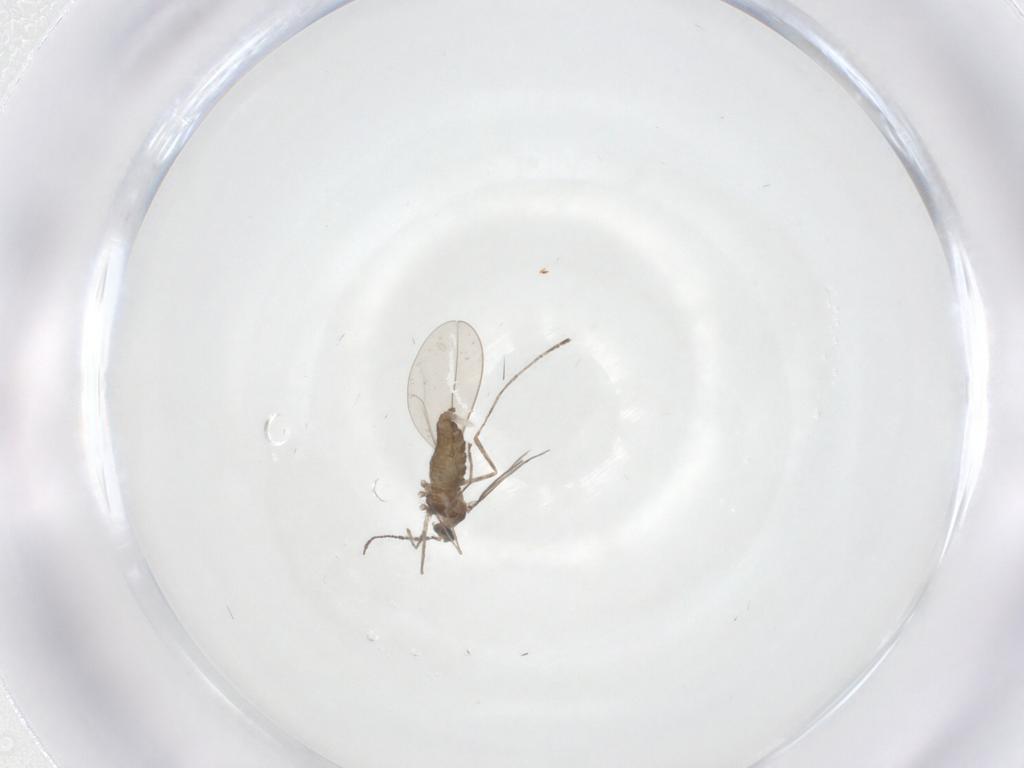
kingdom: Animalia
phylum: Arthropoda
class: Insecta
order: Diptera
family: Cecidomyiidae
